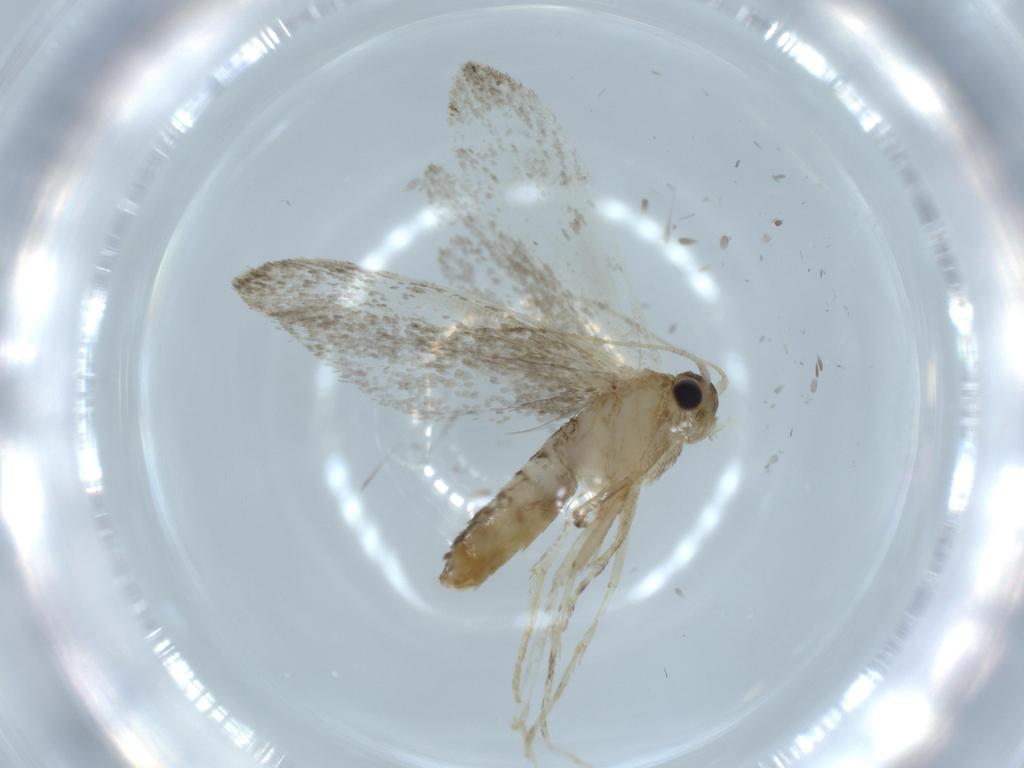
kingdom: Animalia
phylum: Arthropoda
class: Insecta
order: Lepidoptera
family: Tineidae
